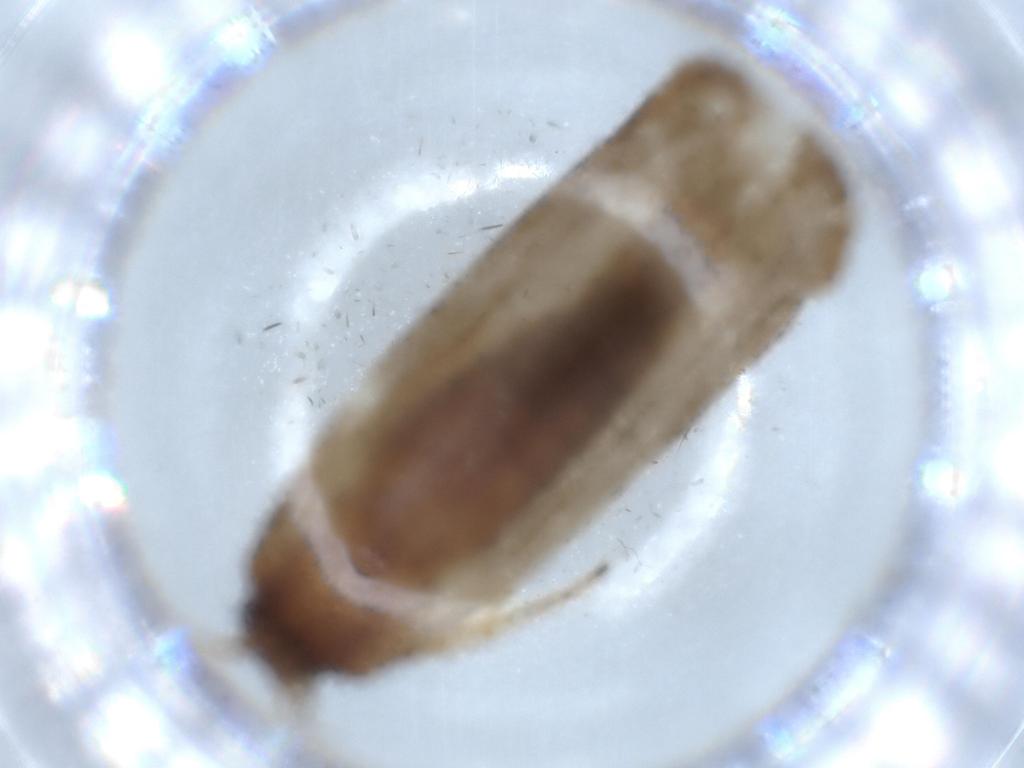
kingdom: Animalia
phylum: Arthropoda
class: Insecta
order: Lepidoptera
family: Blastobasidae
